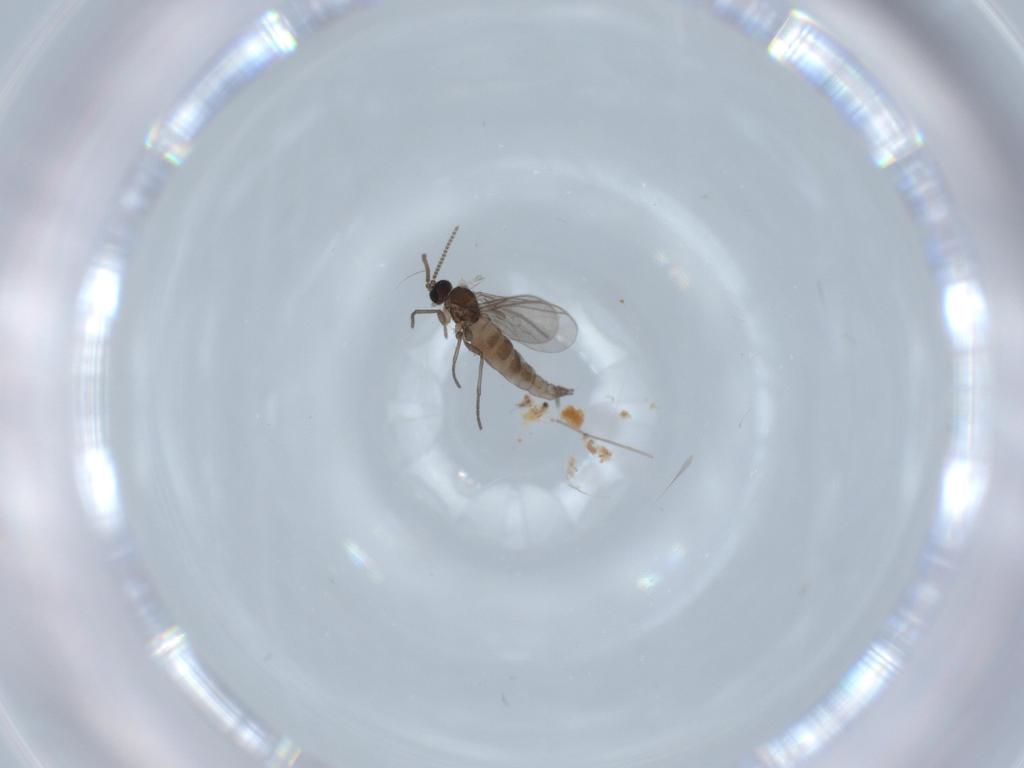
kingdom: Animalia
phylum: Arthropoda
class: Insecta
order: Diptera
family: Cecidomyiidae
